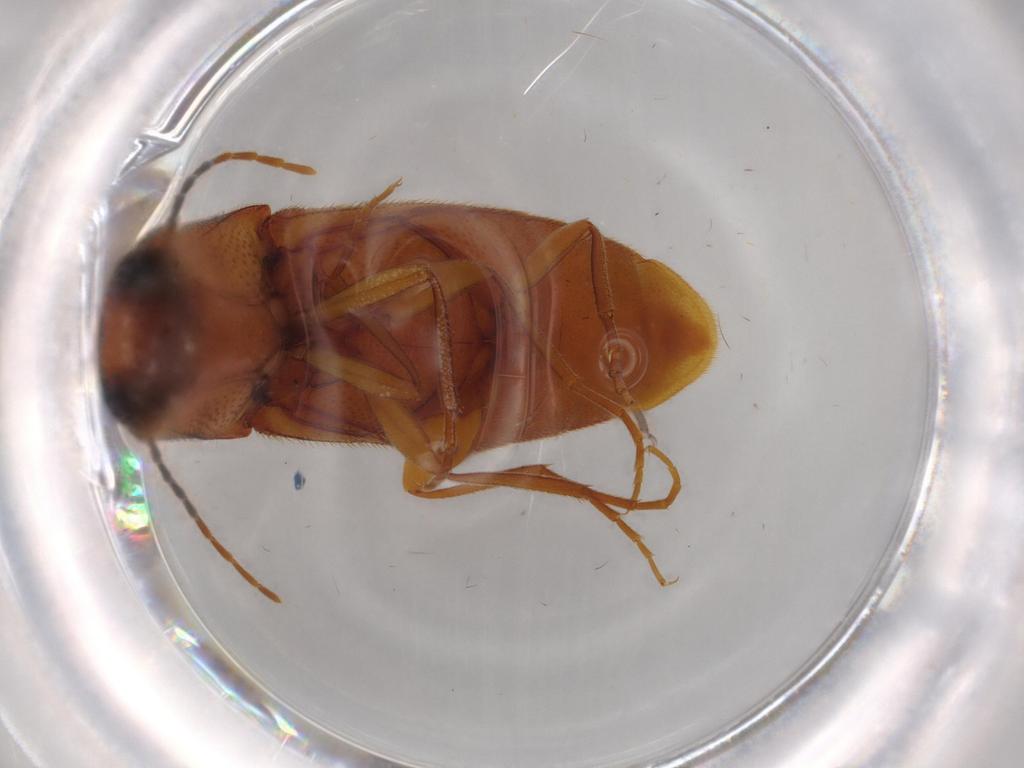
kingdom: Animalia
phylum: Arthropoda
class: Insecta
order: Coleoptera
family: Elateridae
